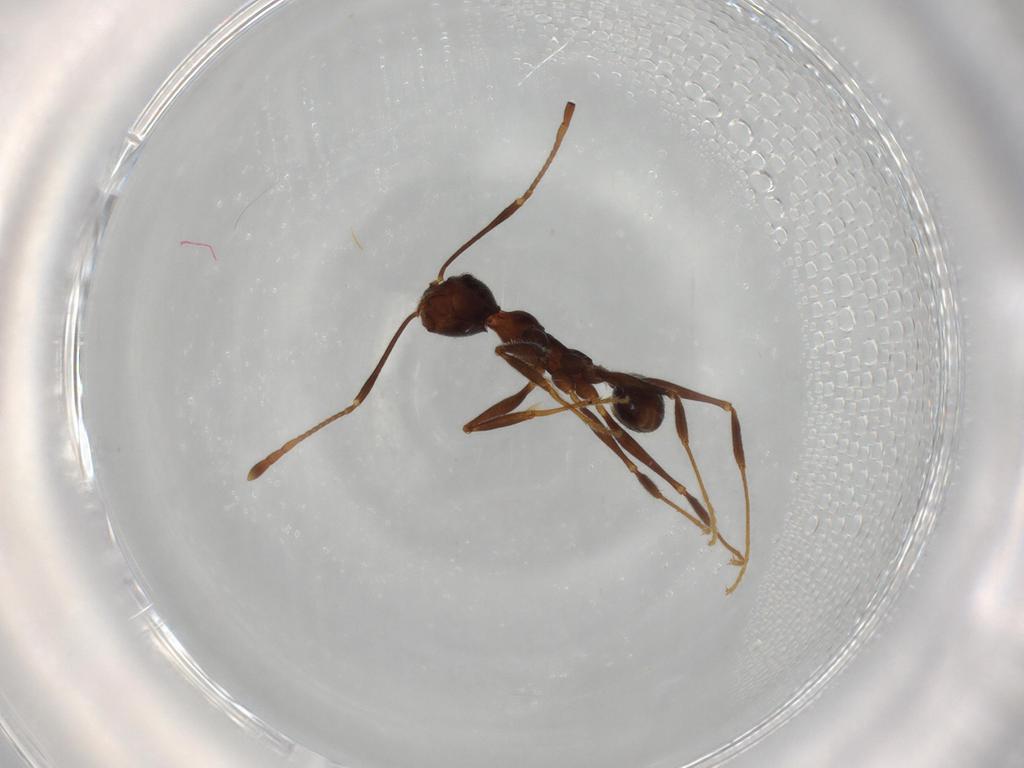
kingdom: Animalia
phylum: Arthropoda
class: Insecta
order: Hymenoptera
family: Formicidae
